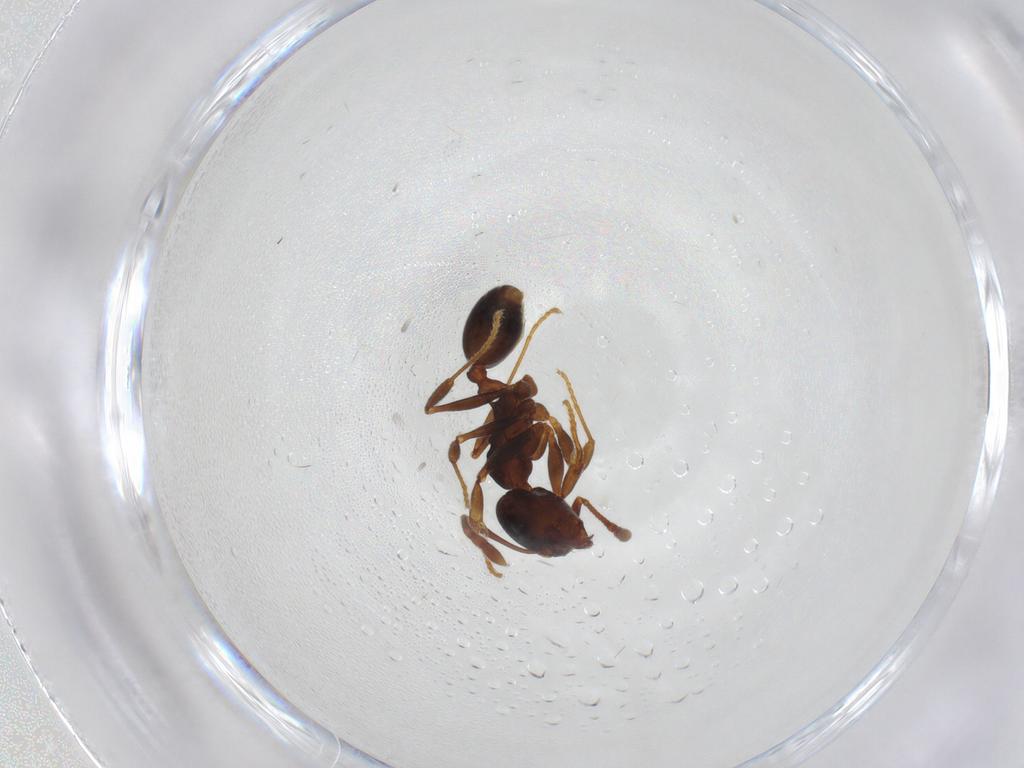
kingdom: Animalia
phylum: Arthropoda
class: Insecta
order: Hymenoptera
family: Formicidae
